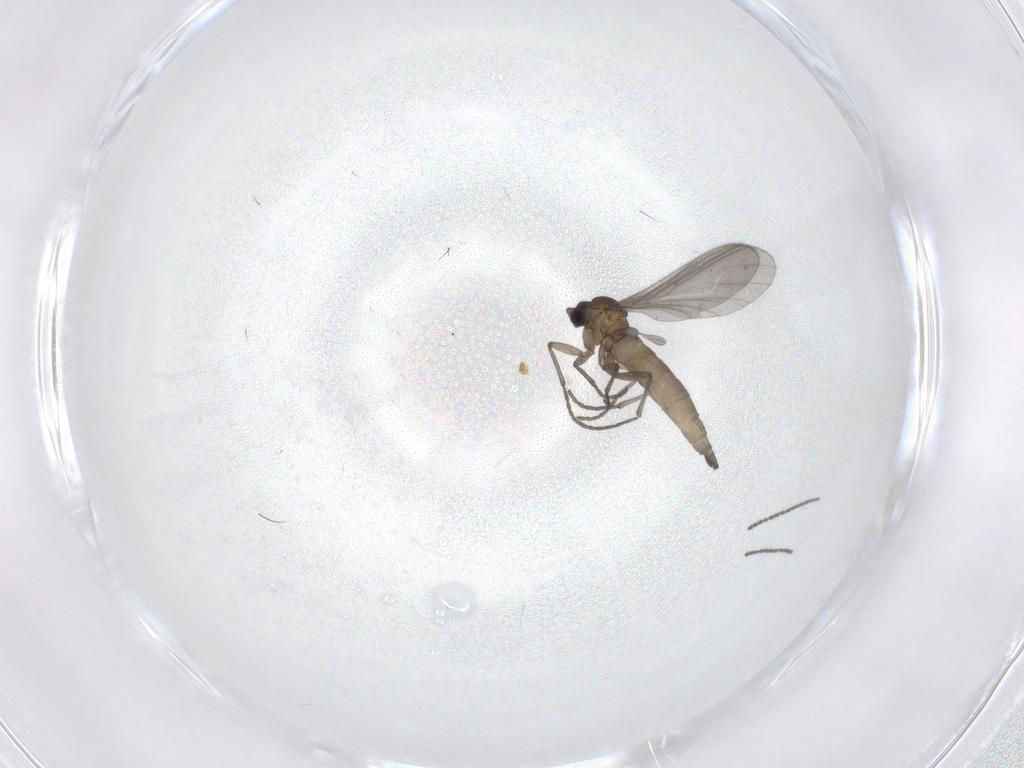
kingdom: Animalia
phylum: Arthropoda
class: Insecta
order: Diptera
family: Sciaridae
